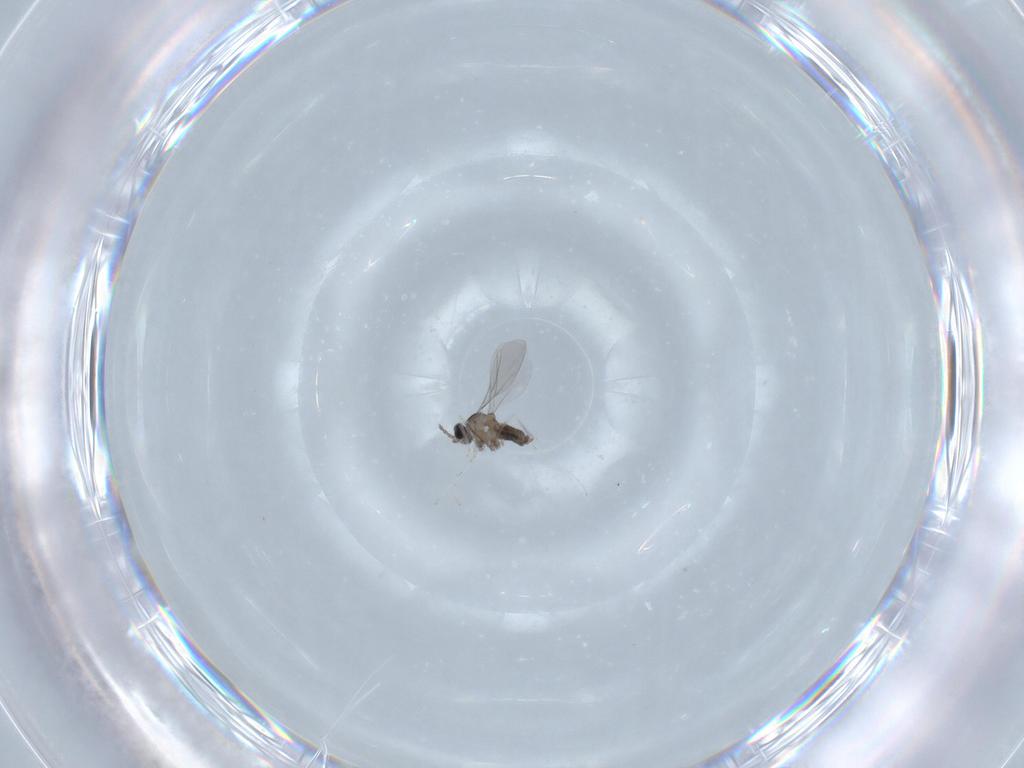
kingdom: Animalia
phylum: Arthropoda
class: Insecta
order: Diptera
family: Cecidomyiidae
